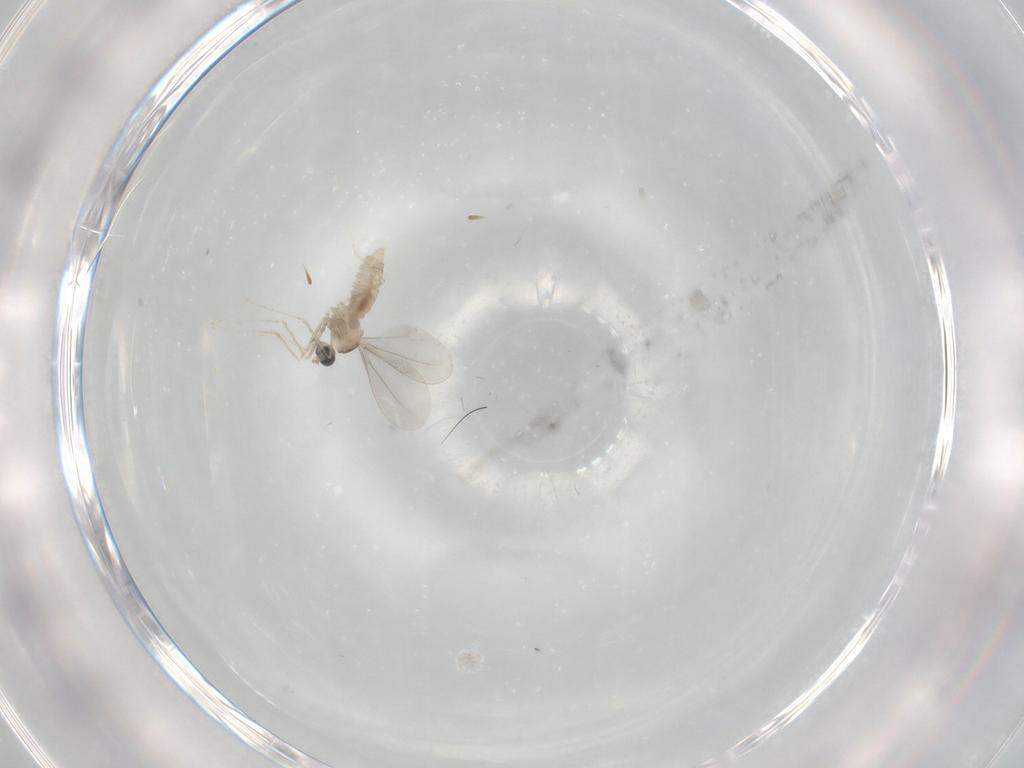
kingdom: Animalia
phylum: Arthropoda
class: Insecta
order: Diptera
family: Cecidomyiidae
